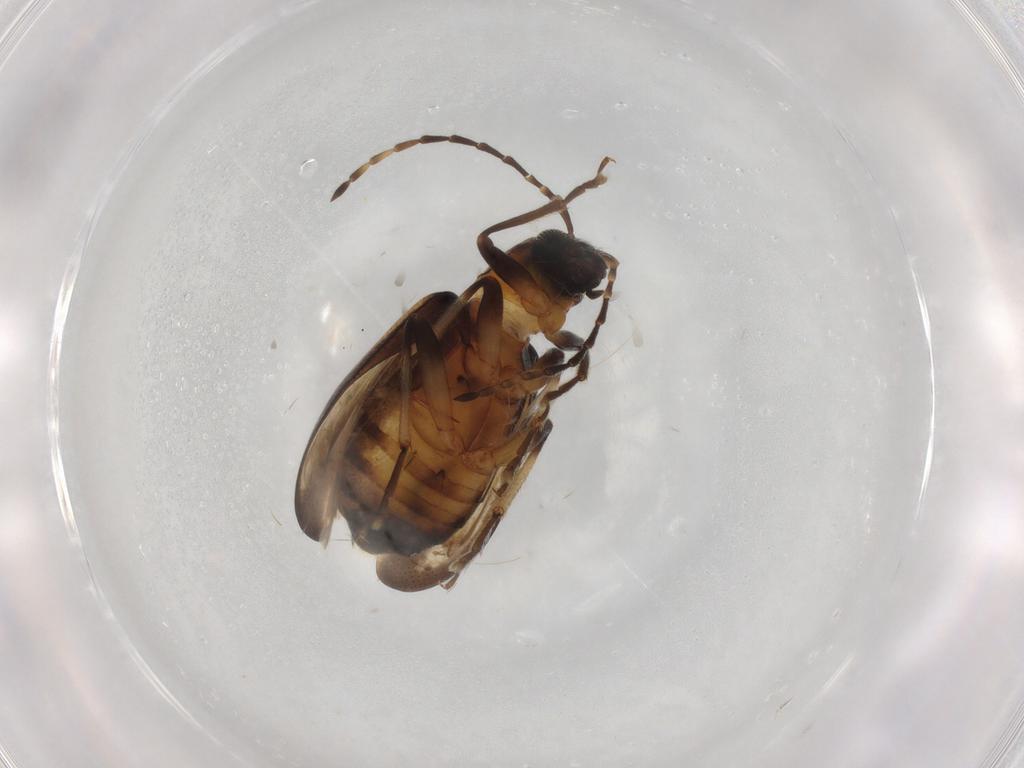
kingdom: Animalia
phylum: Arthropoda
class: Insecta
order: Coleoptera
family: Chrysomelidae
